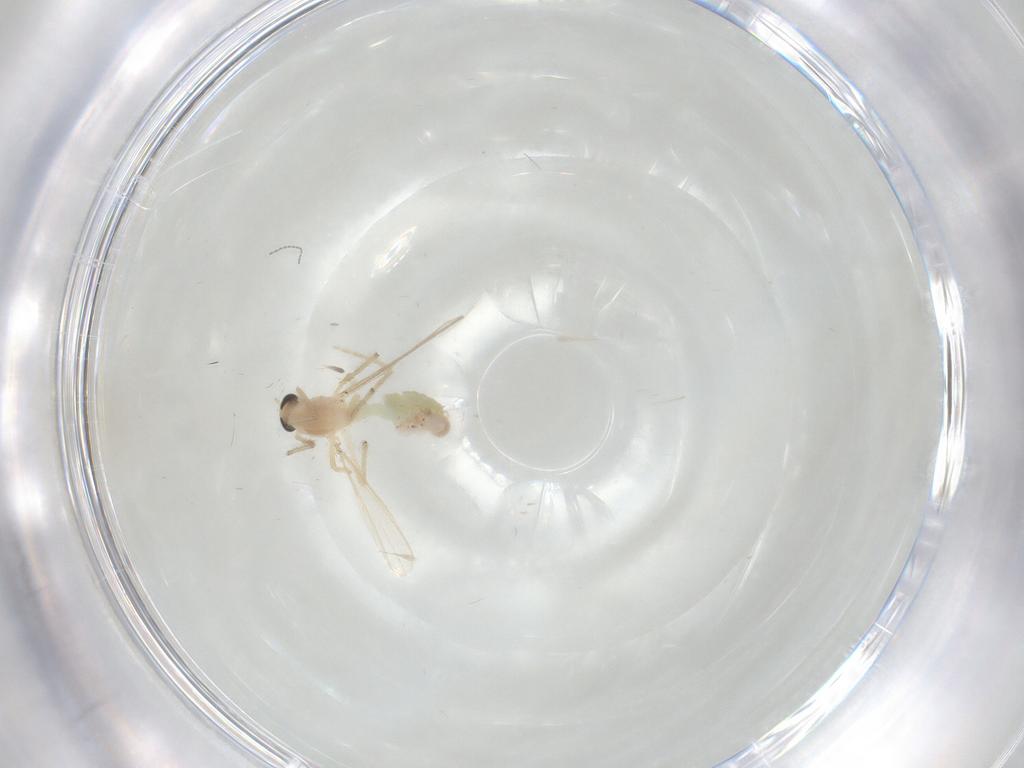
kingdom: Animalia
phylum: Arthropoda
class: Insecta
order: Diptera
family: Chironomidae
